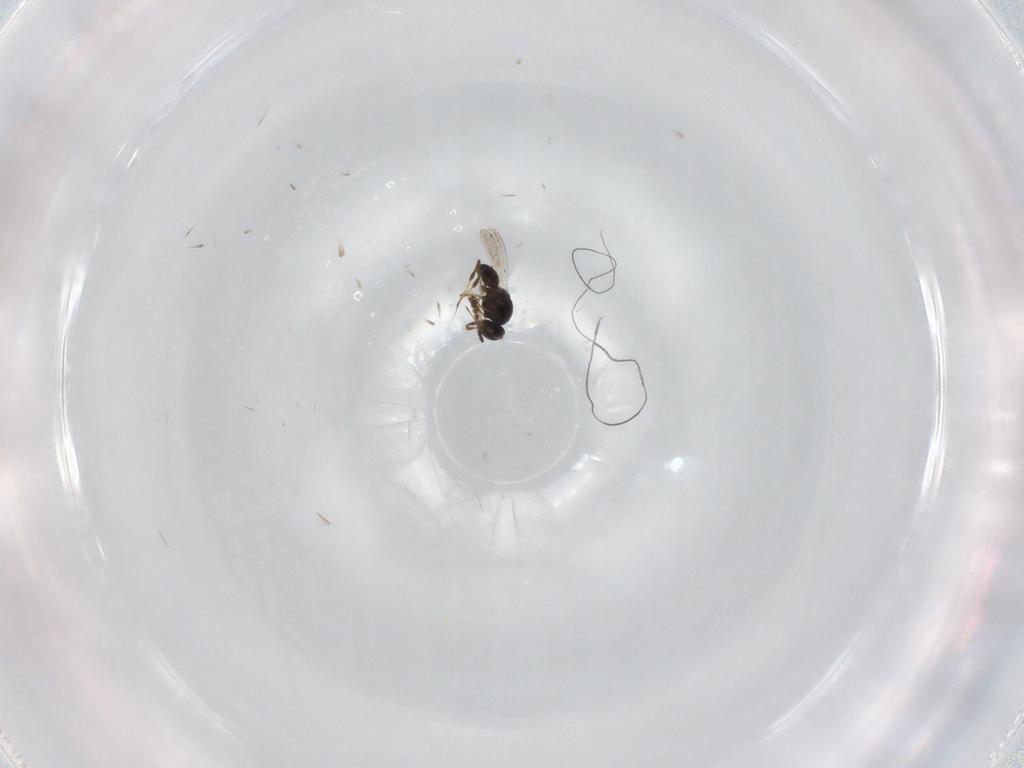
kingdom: Animalia
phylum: Arthropoda
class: Insecta
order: Hymenoptera
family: Platygastridae
